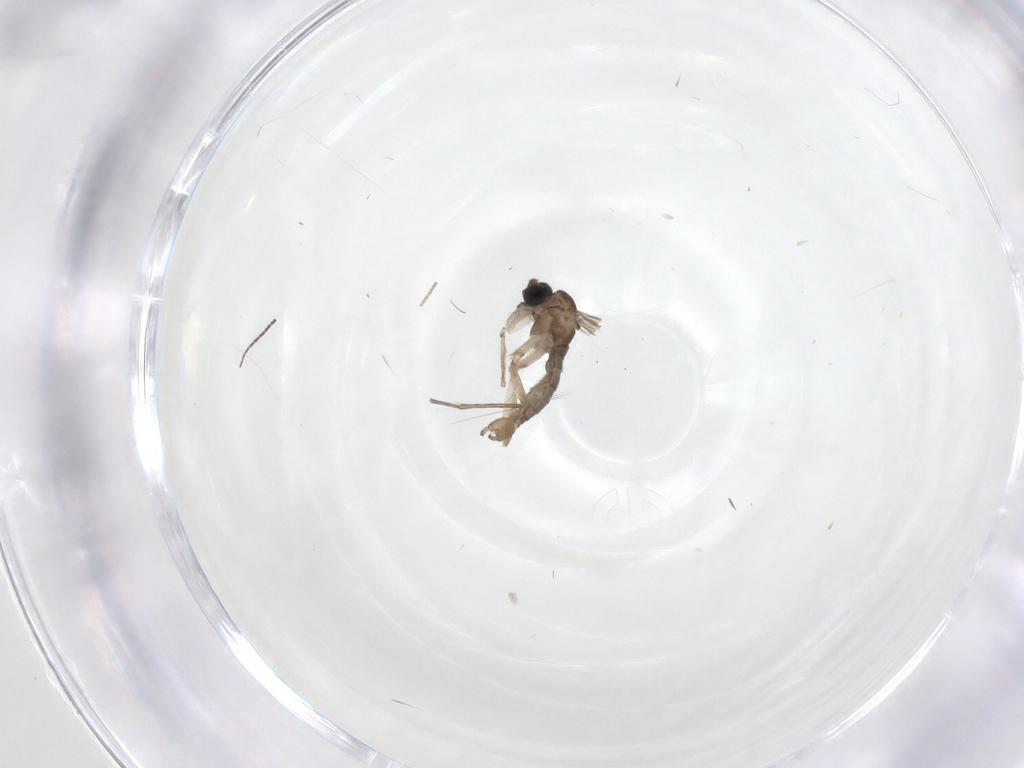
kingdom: Animalia
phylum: Arthropoda
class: Insecta
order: Diptera
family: Sciaridae
